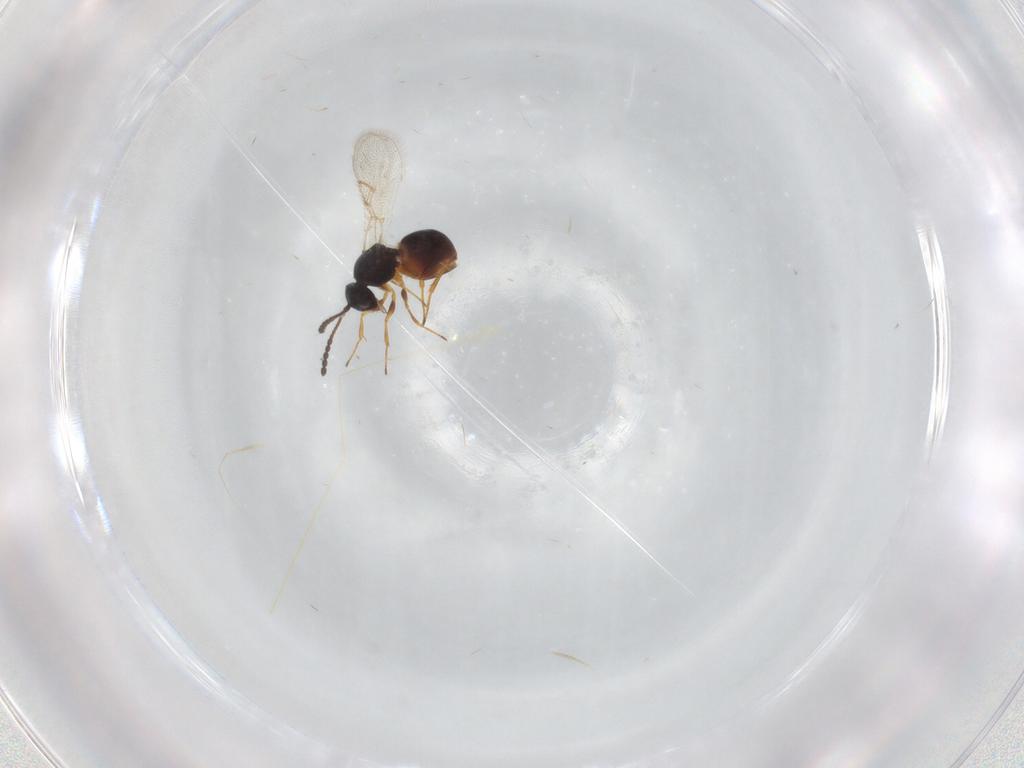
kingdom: Animalia
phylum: Arthropoda
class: Insecta
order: Hymenoptera
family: Figitidae
